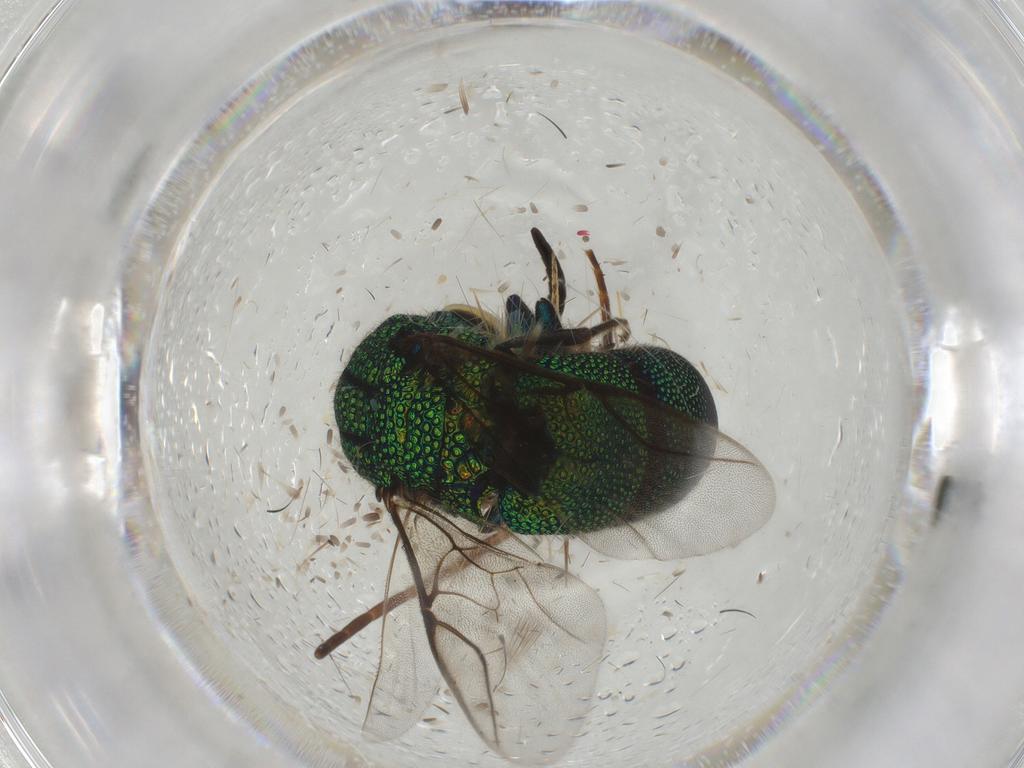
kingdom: Animalia
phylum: Arthropoda
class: Insecta
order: Hymenoptera
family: Chrysididae
